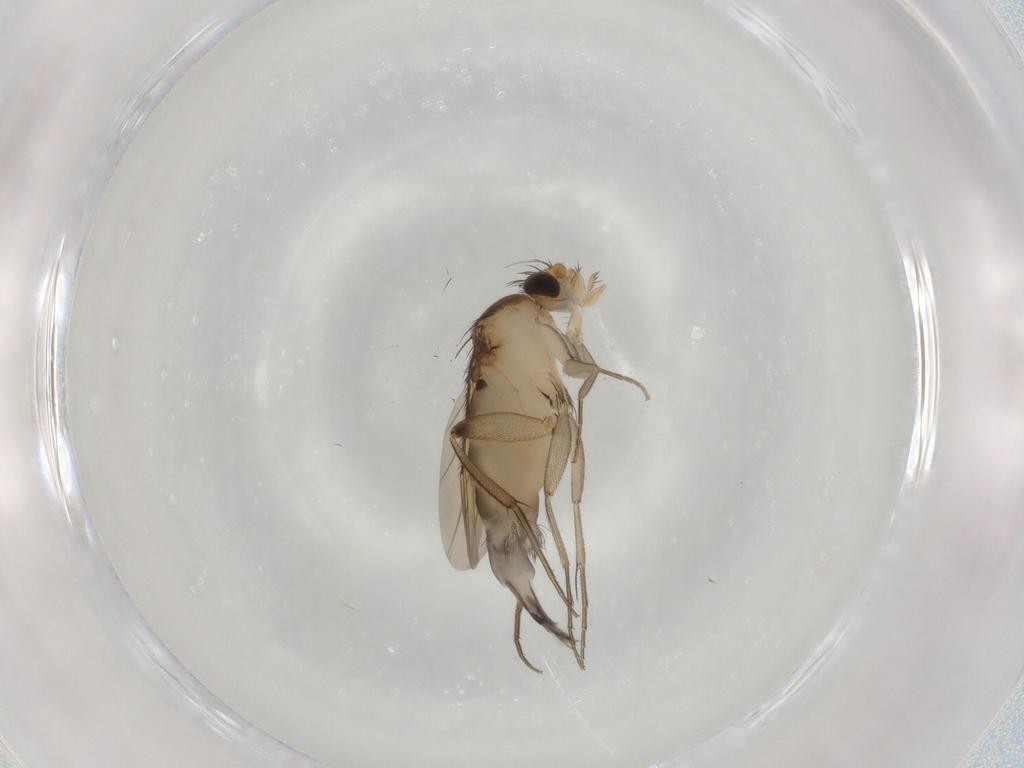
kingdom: Animalia
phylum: Arthropoda
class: Insecta
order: Diptera
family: Phoridae
